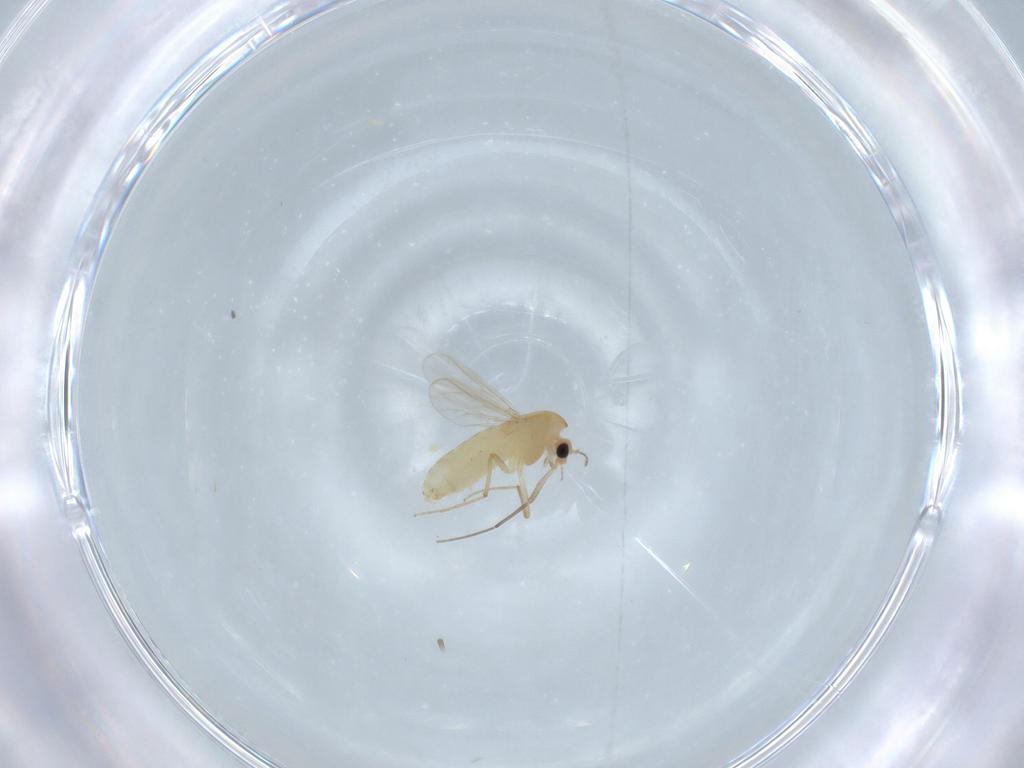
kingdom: Animalia
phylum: Arthropoda
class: Insecta
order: Diptera
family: Chironomidae
